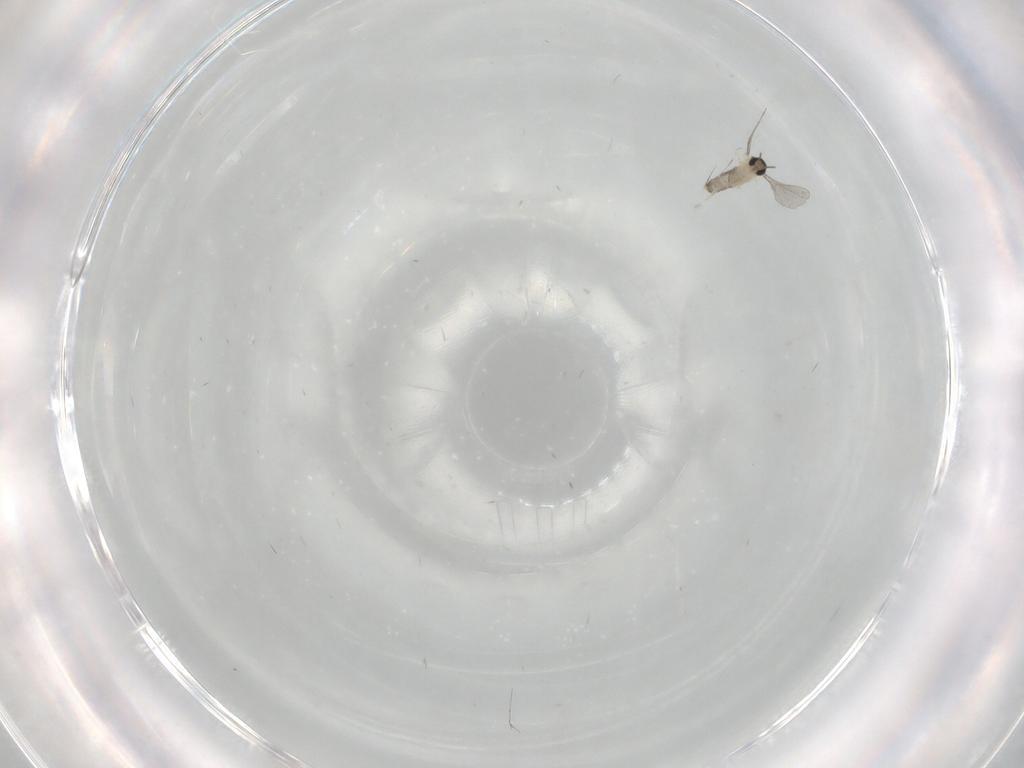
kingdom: Animalia
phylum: Arthropoda
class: Insecta
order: Diptera
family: Cecidomyiidae
